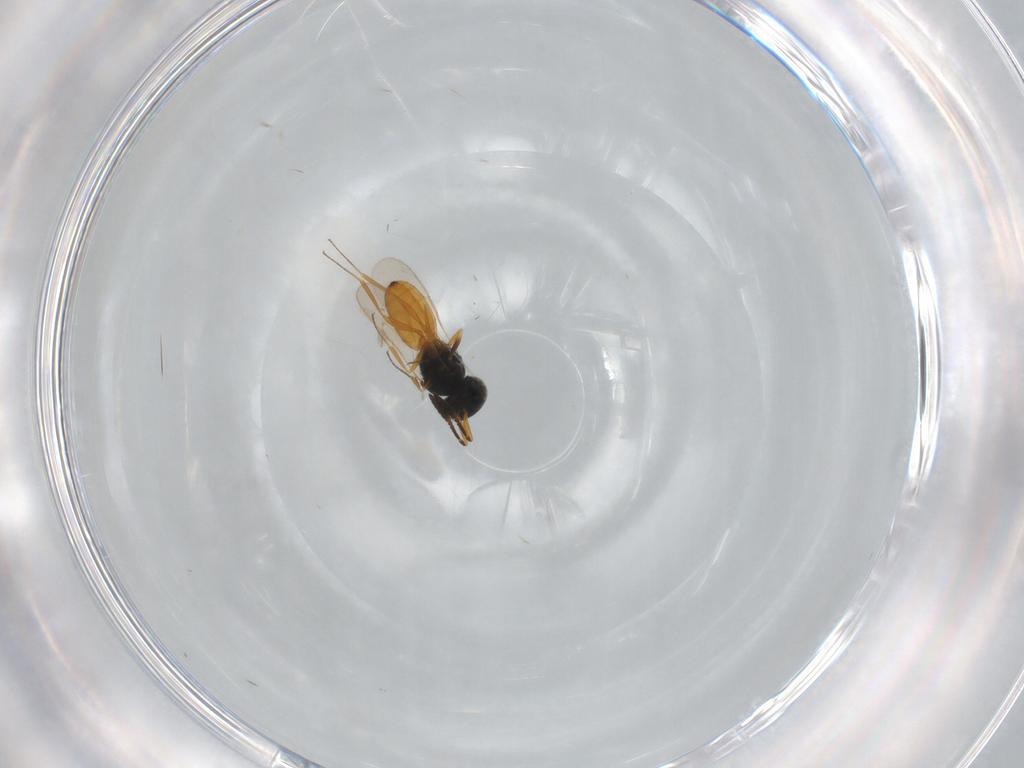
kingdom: Animalia
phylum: Arthropoda
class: Insecta
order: Hymenoptera
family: Scelionidae
